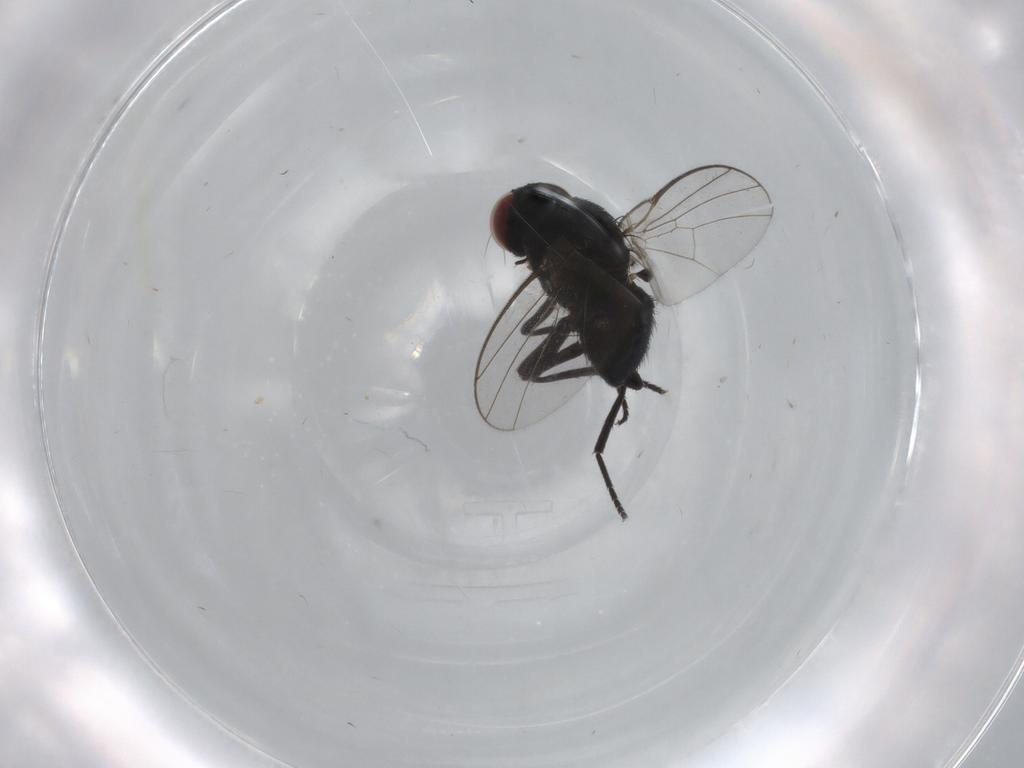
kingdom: Animalia
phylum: Arthropoda
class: Insecta
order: Diptera
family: Agromyzidae
